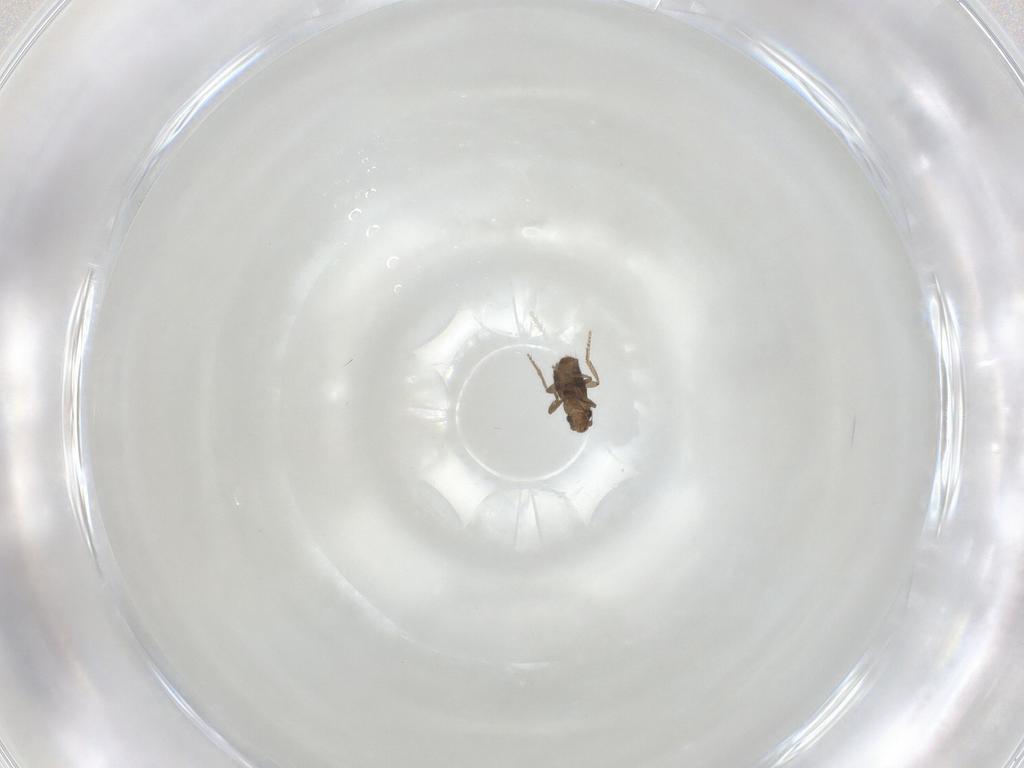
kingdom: Animalia
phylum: Arthropoda
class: Insecta
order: Diptera
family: Phoridae
